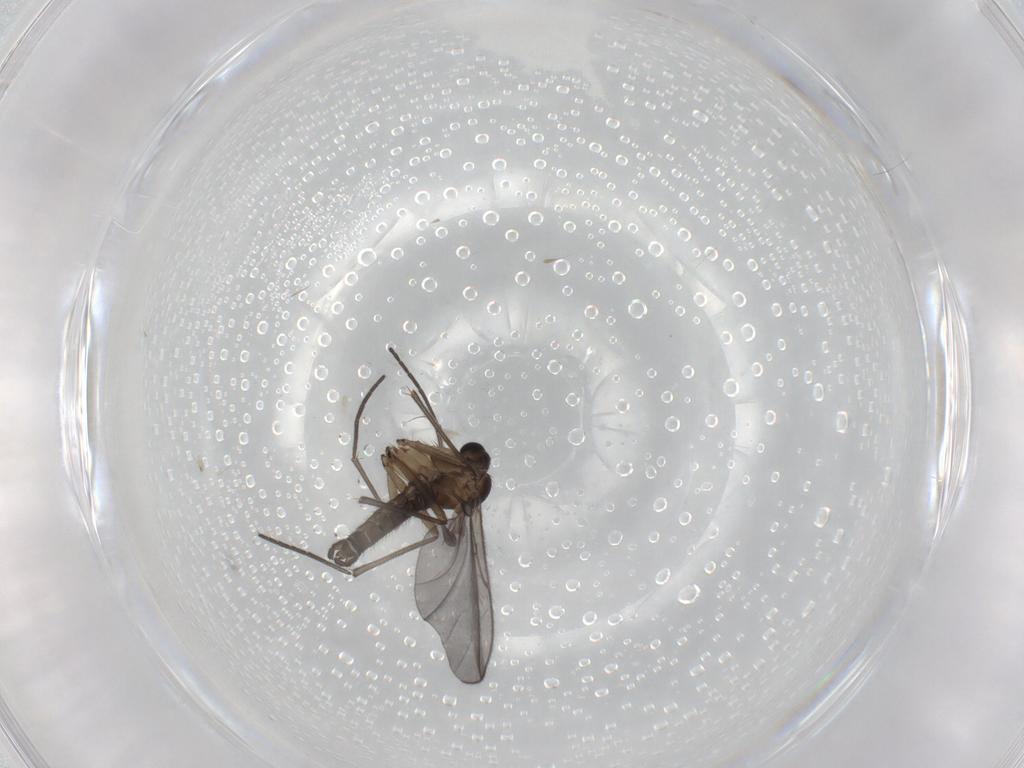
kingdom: Animalia
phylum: Arthropoda
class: Insecta
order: Diptera
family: Sciaridae
